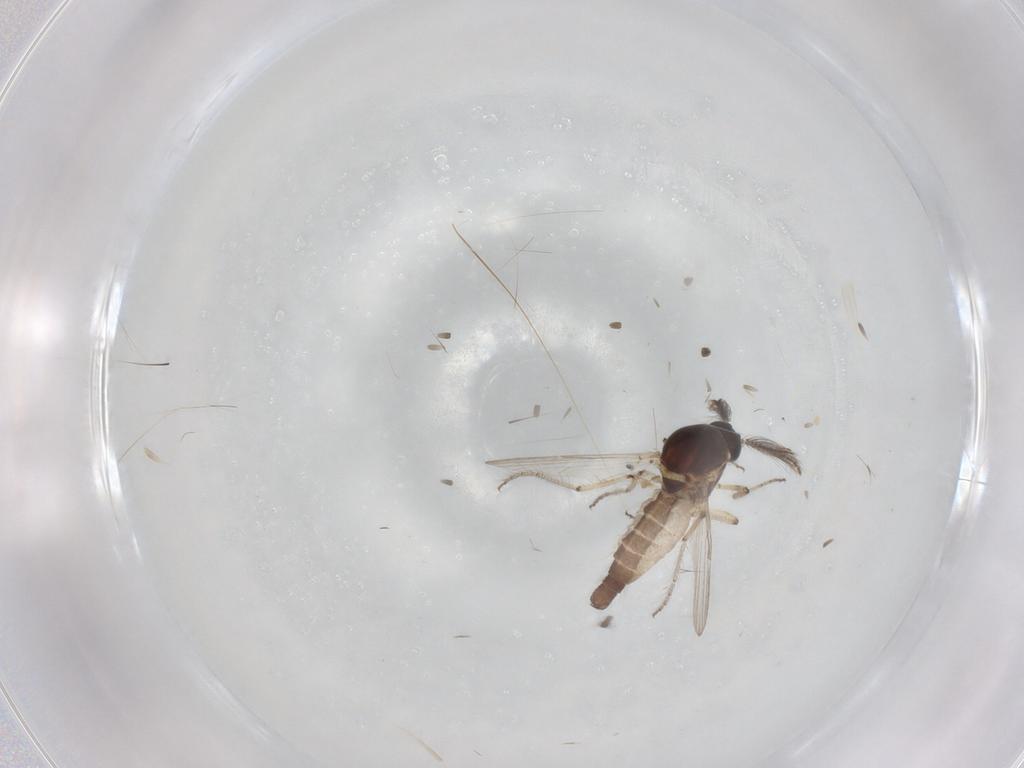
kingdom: Animalia
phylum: Arthropoda
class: Insecta
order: Diptera
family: Ceratopogonidae
